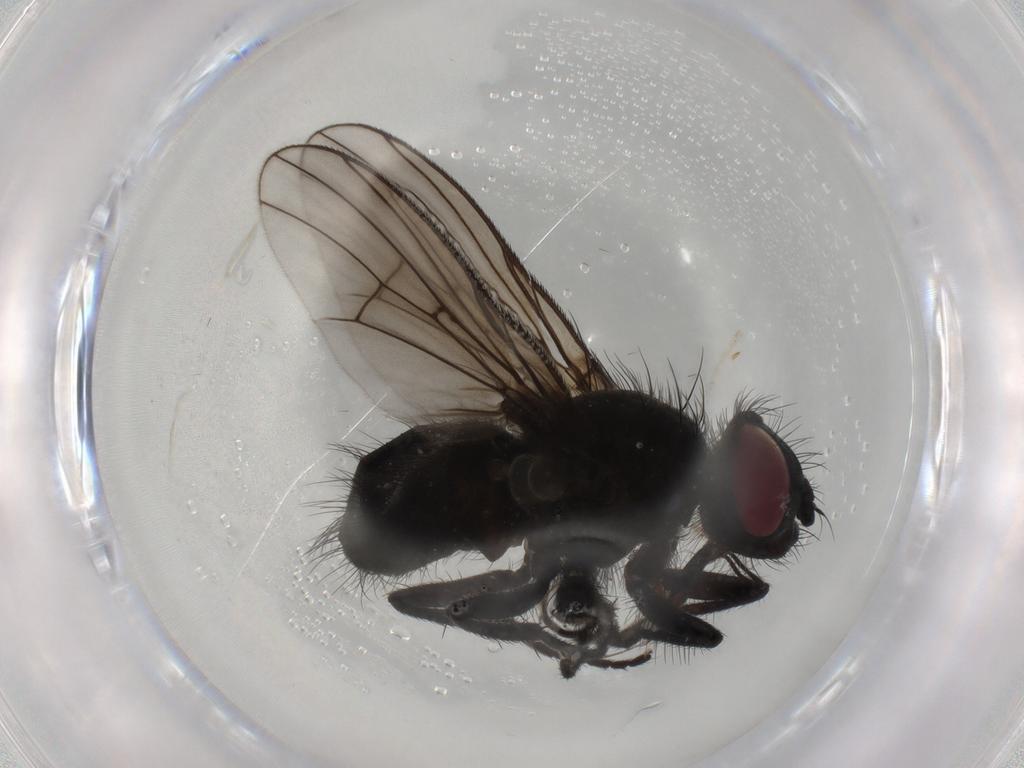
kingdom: Animalia
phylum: Arthropoda
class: Insecta
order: Diptera
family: Muscidae
